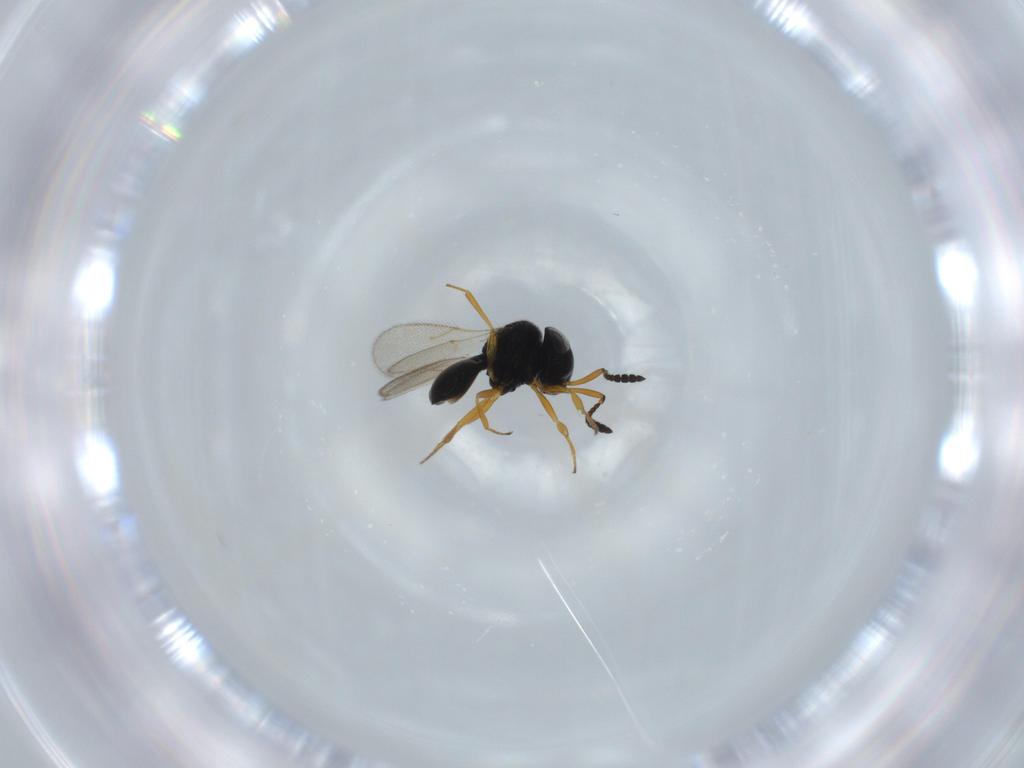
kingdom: Animalia
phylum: Arthropoda
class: Insecta
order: Hymenoptera
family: Scelionidae
